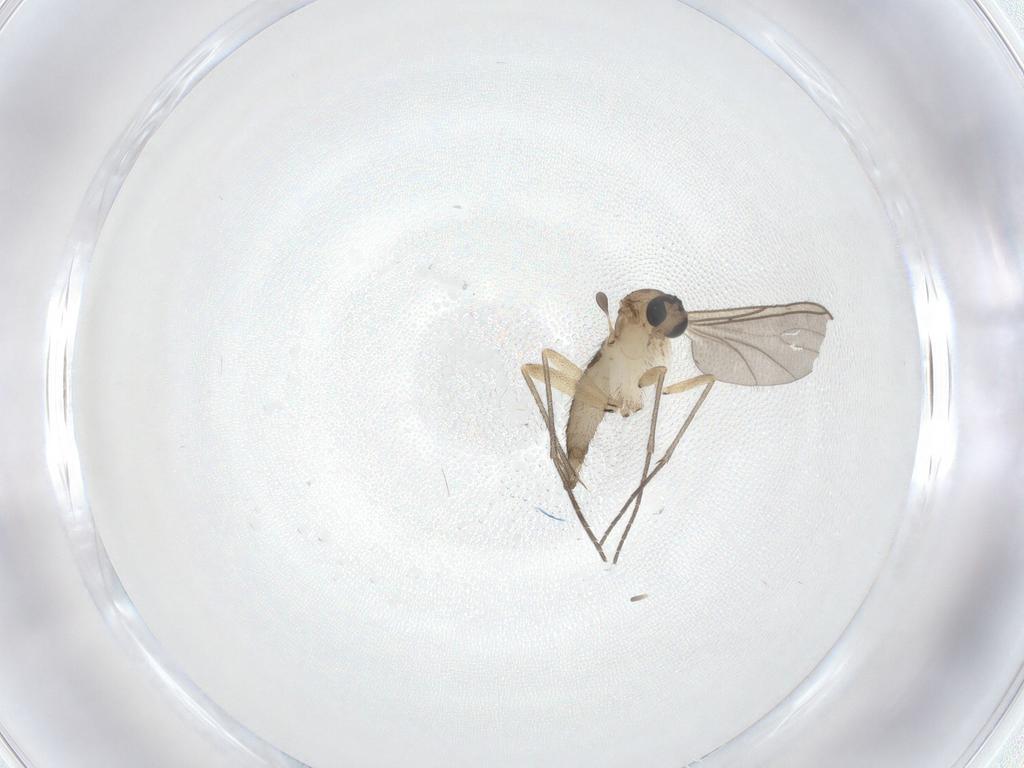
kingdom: Animalia
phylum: Arthropoda
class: Insecta
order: Diptera
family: Sciaridae
